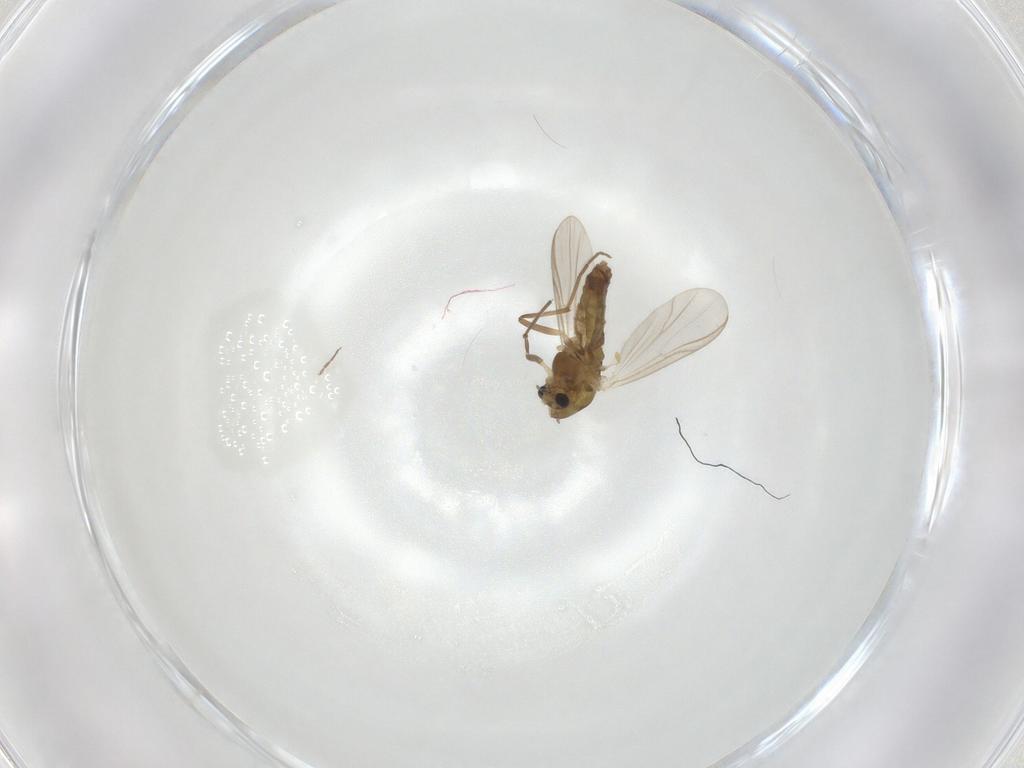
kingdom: Animalia
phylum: Arthropoda
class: Insecta
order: Diptera
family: Chironomidae
